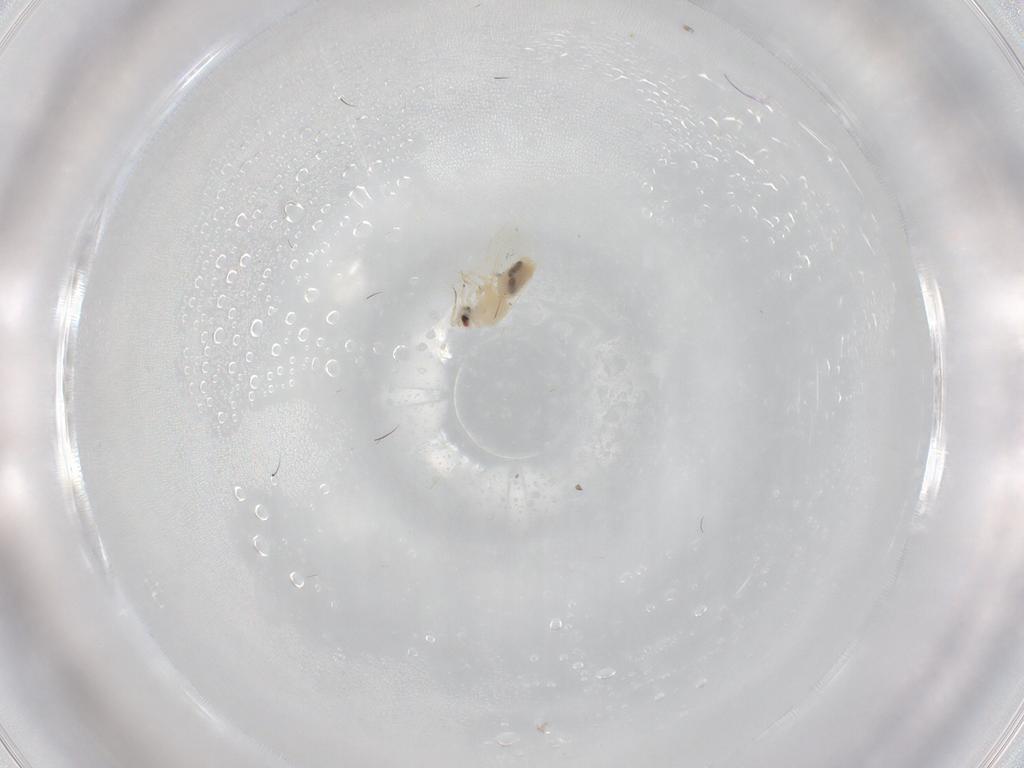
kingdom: Animalia
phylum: Arthropoda
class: Insecta
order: Hemiptera
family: Aleyrodidae
